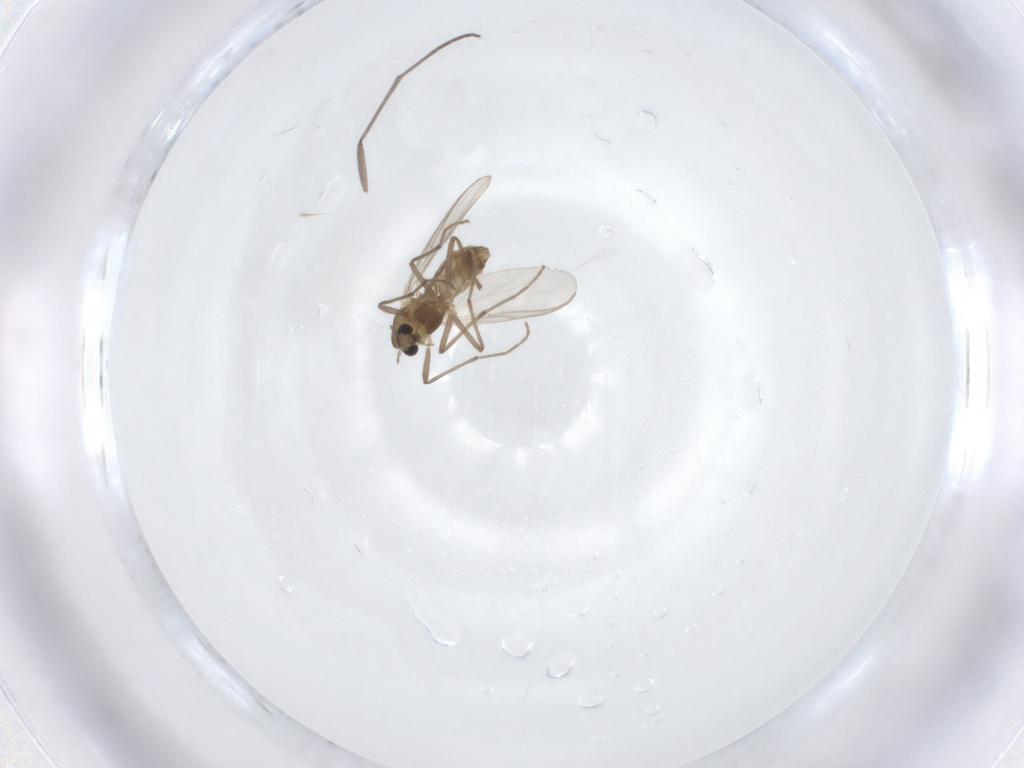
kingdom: Animalia
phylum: Arthropoda
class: Insecta
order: Diptera
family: Chironomidae
